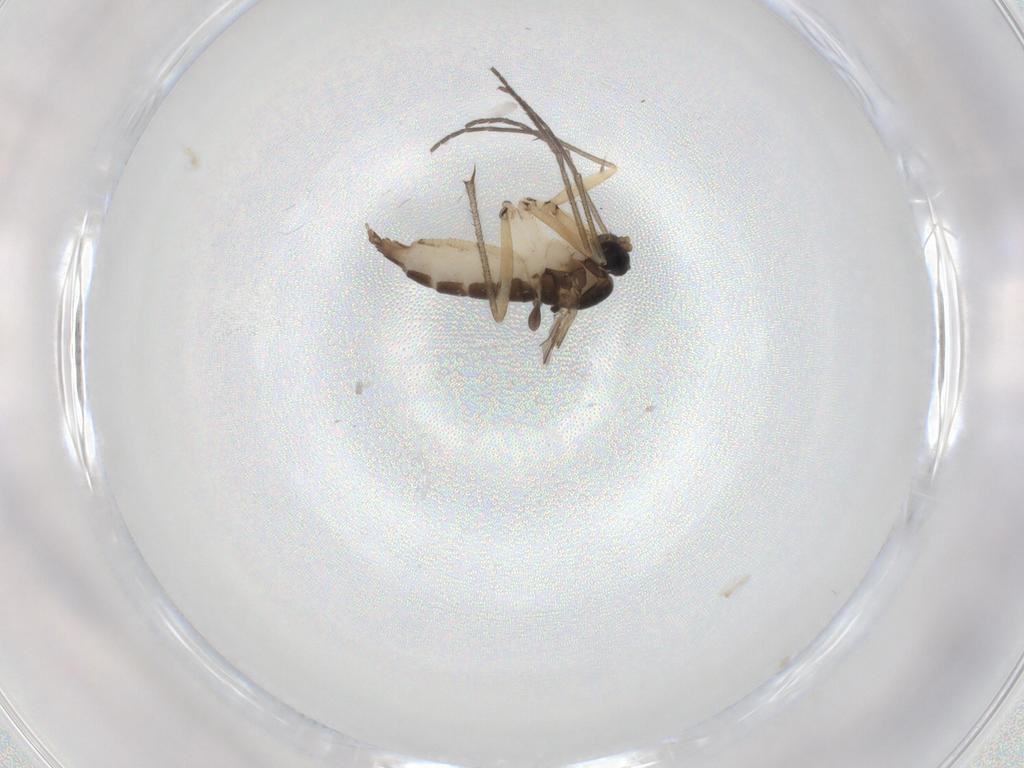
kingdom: Animalia
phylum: Arthropoda
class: Insecta
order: Diptera
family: Sciaridae
